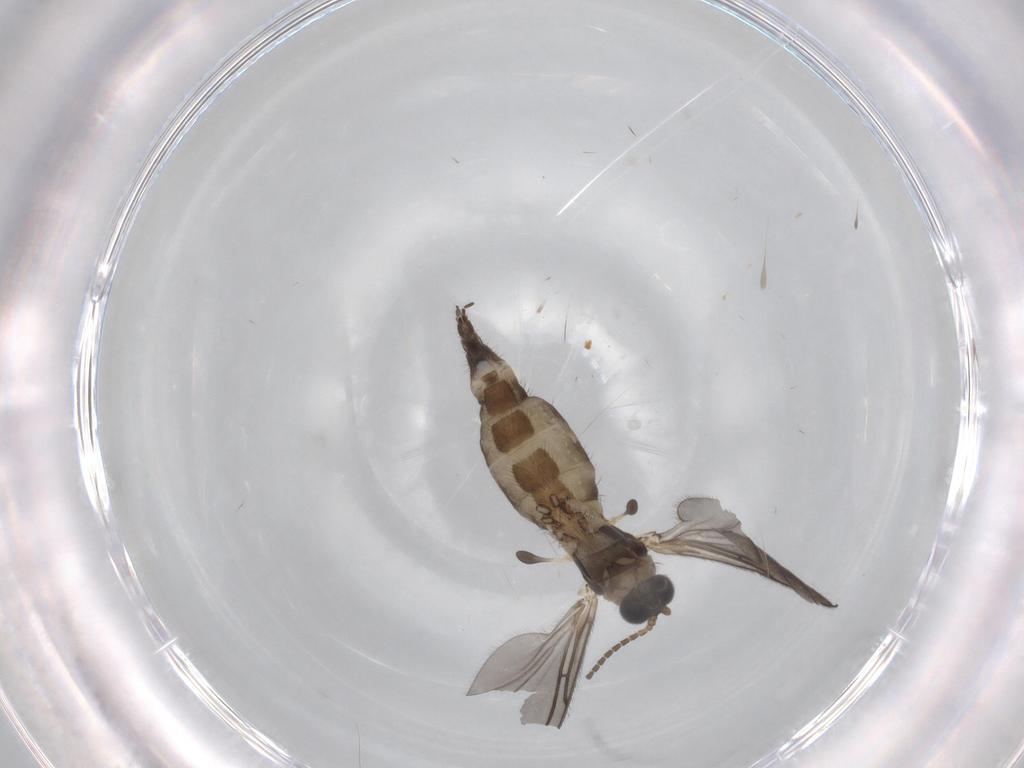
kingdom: Animalia
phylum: Arthropoda
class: Insecta
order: Diptera
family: Sciaridae
